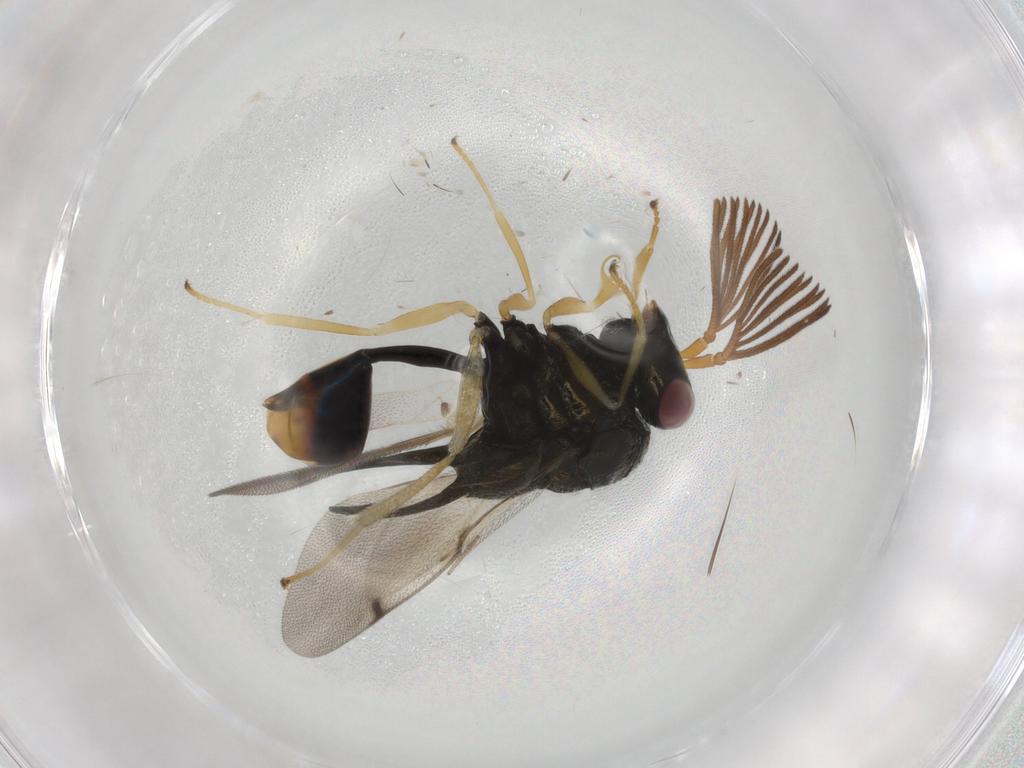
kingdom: Animalia
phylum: Arthropoda
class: Insecta
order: Hymenoptera
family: Braconidae
